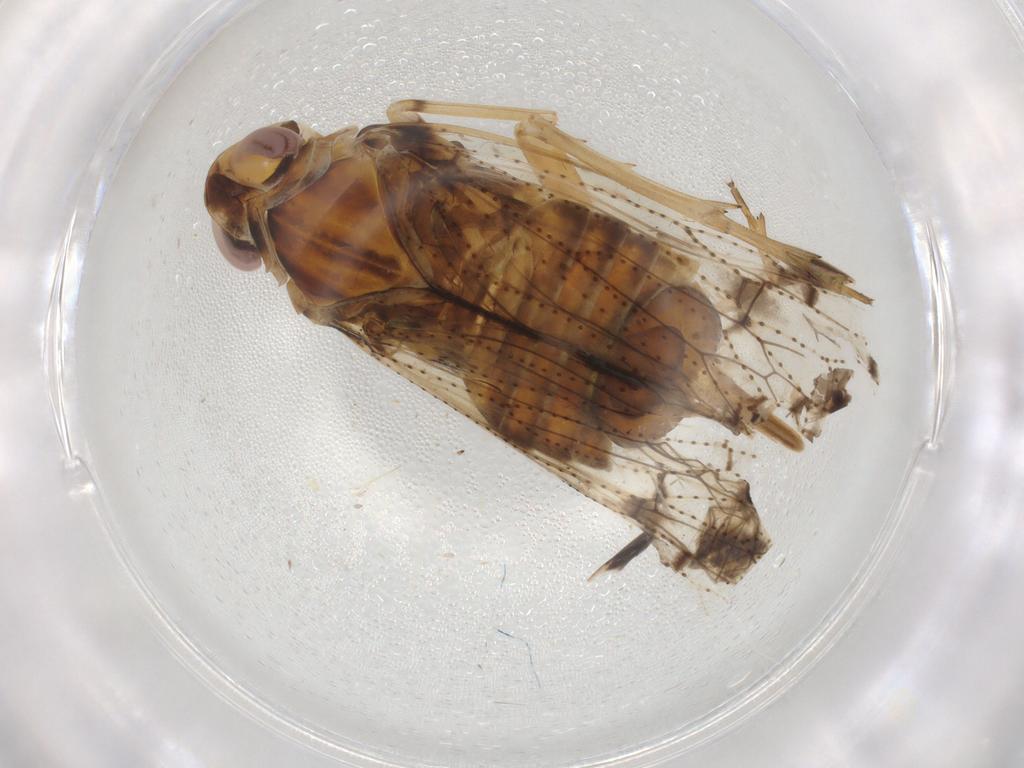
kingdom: Animalia
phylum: Arthropoda
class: Insecta
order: Hemiptera
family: Cixiidae
